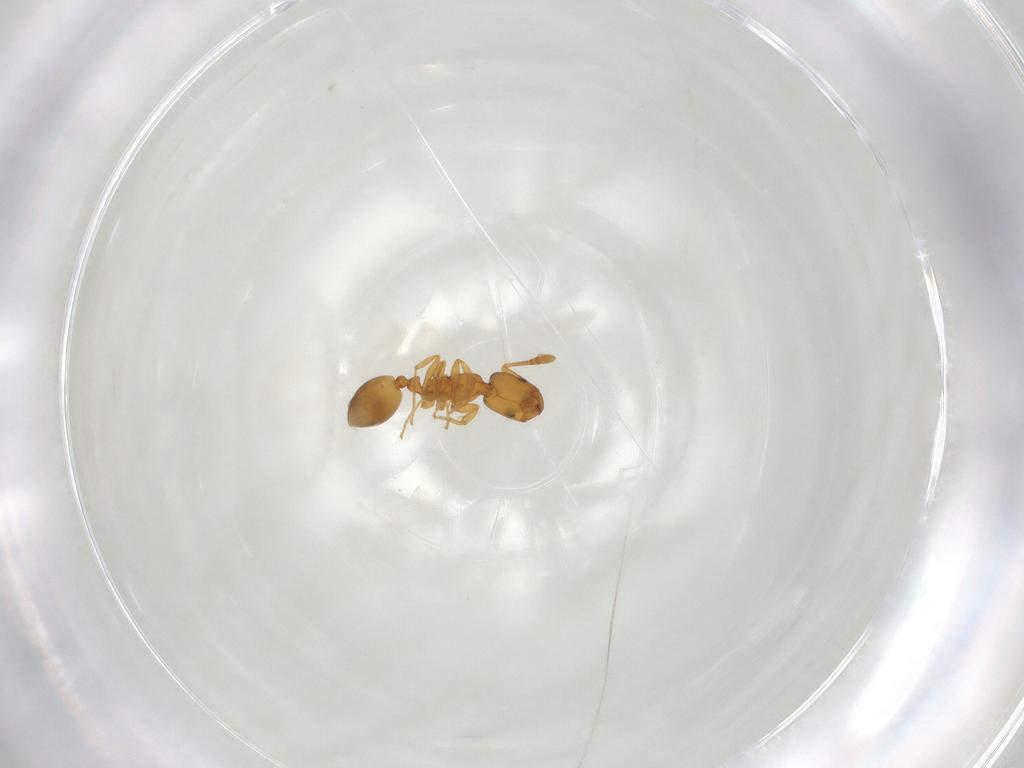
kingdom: Animalia
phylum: Arthropoda
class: Insecta
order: Hymenoptera
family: Formicidae
